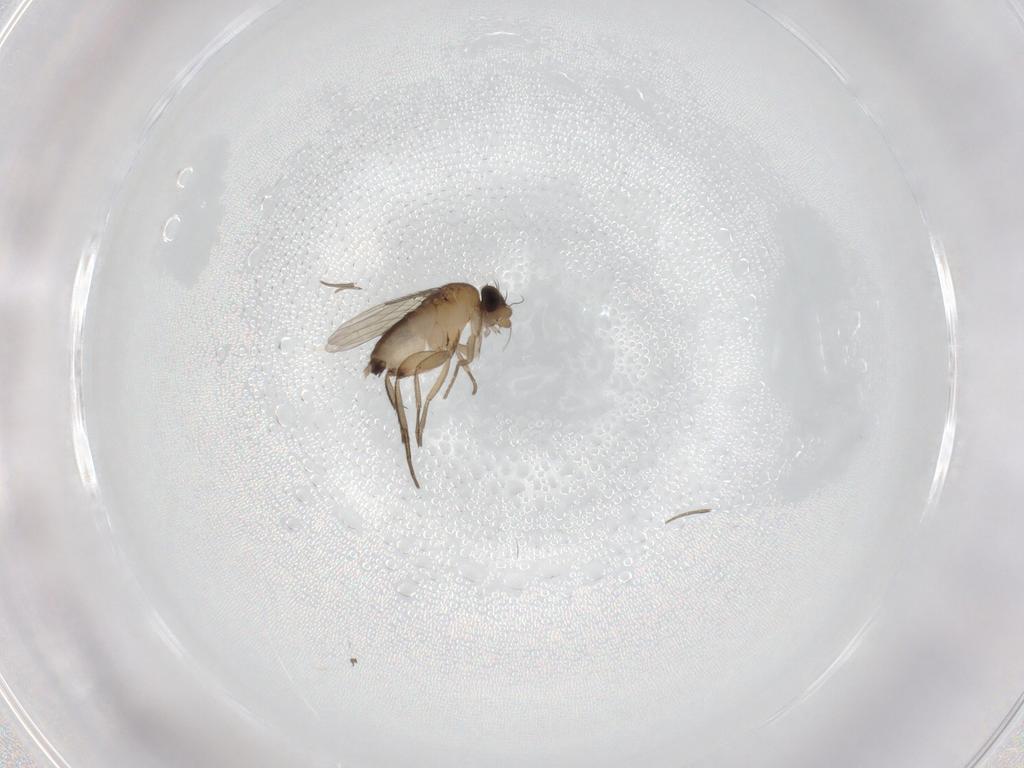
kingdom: Animalia
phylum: Arthropoda
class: Insecta
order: Diptera
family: Phoridae
